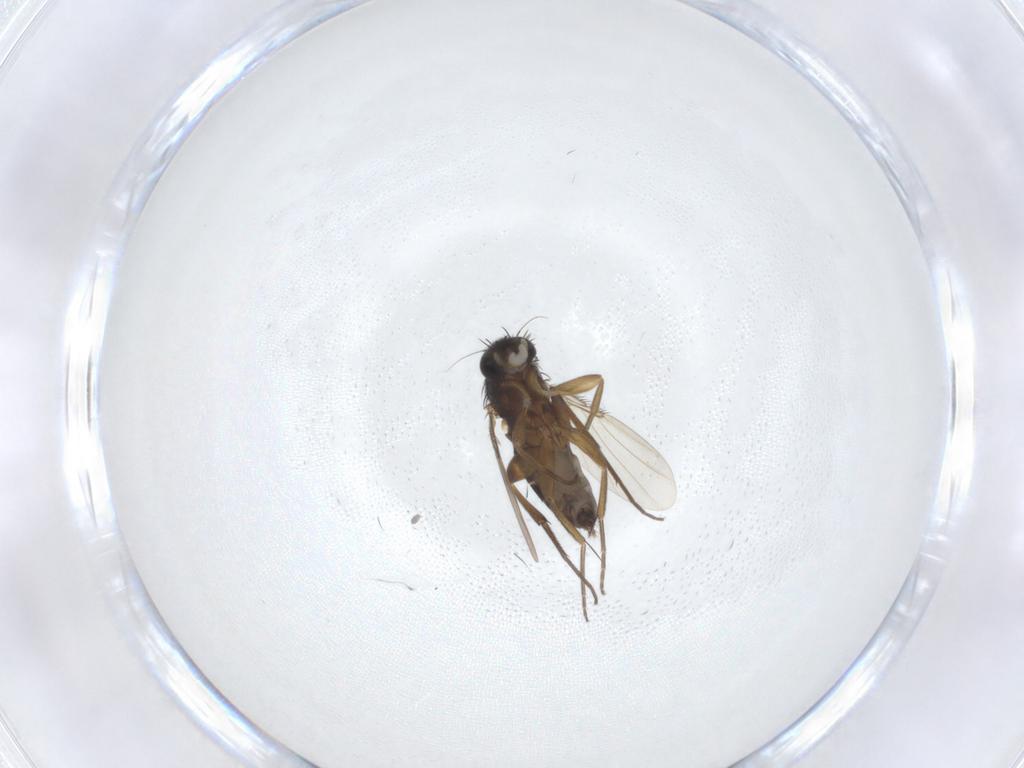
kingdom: Animalia
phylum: Arthropoda
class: Insecta
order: Diptera
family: Phoridae
